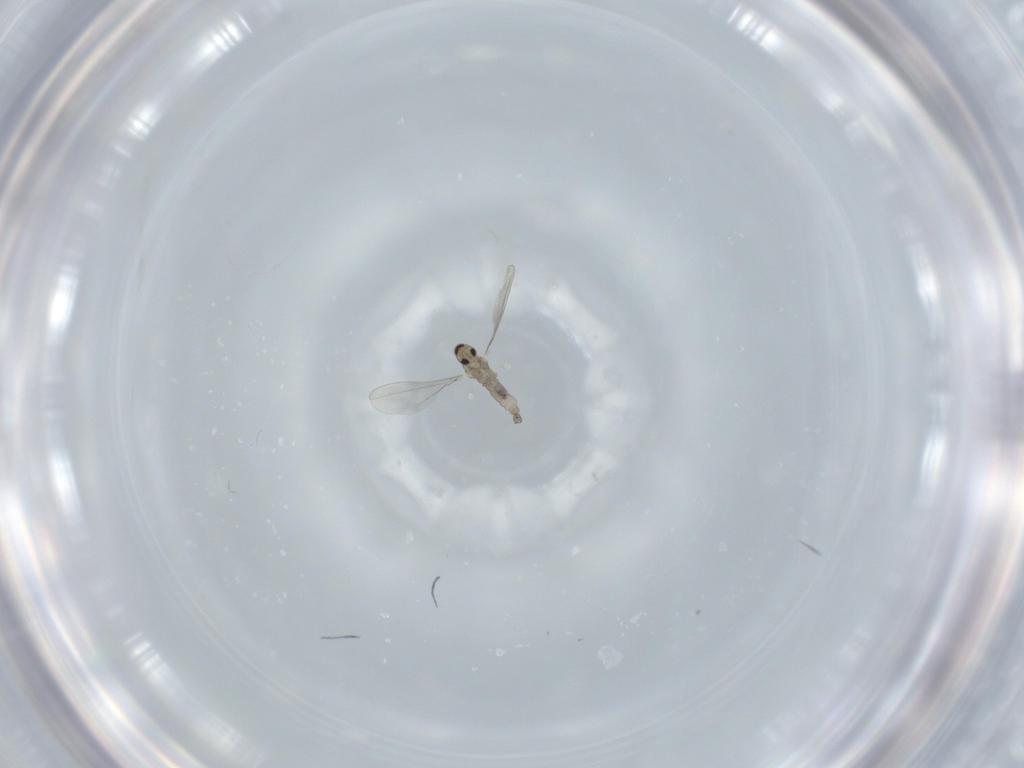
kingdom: Animalia
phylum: Arthropoda
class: Insecta
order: Diptera
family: Cecidomyiidae
